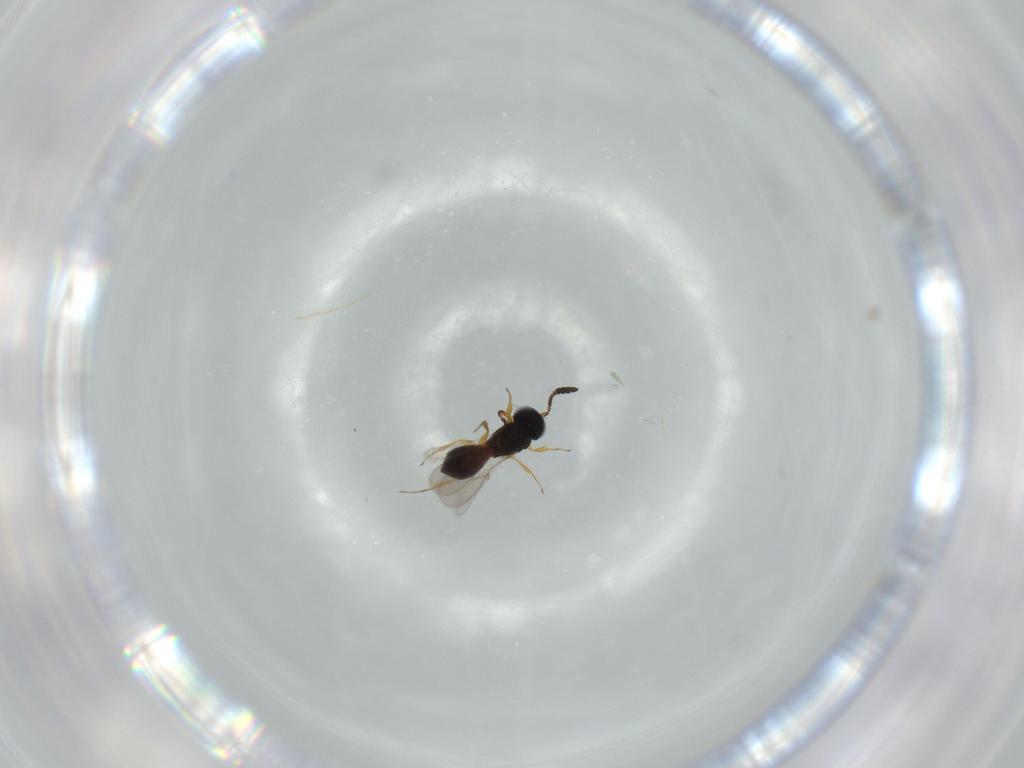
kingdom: Animalia
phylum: Arthropoda
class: Insecta
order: Hymenoptera
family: Scelionidae
